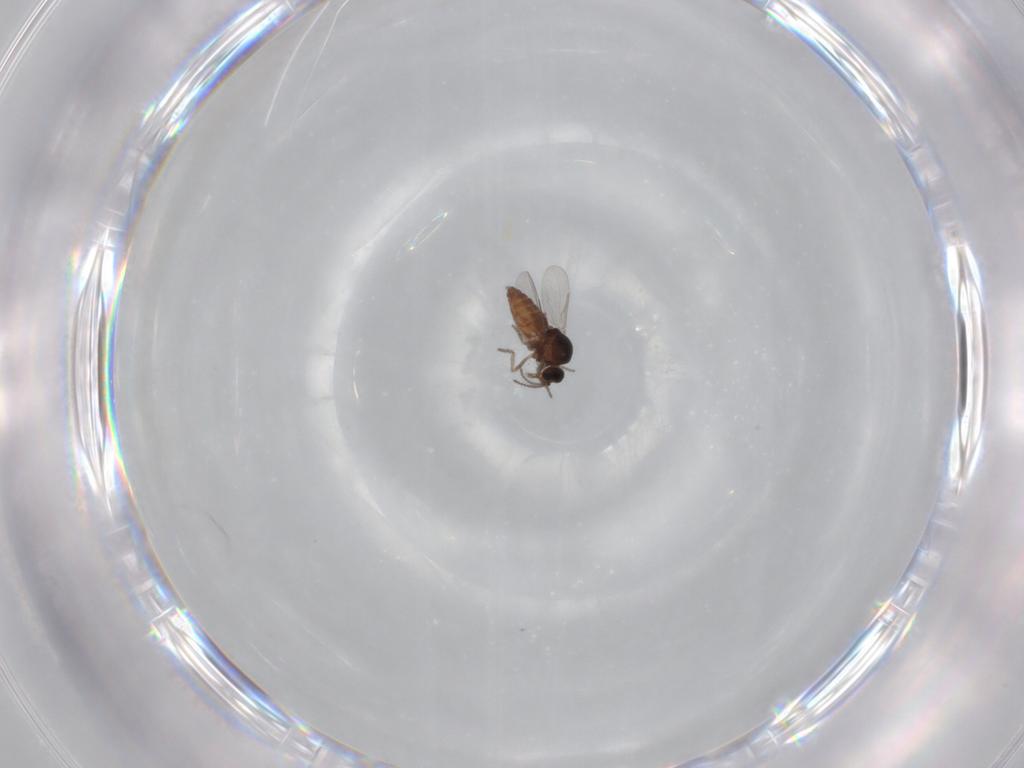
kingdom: Animalia
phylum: Arthropoda
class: Insecta
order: Diptera
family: Ceratopogonidae
